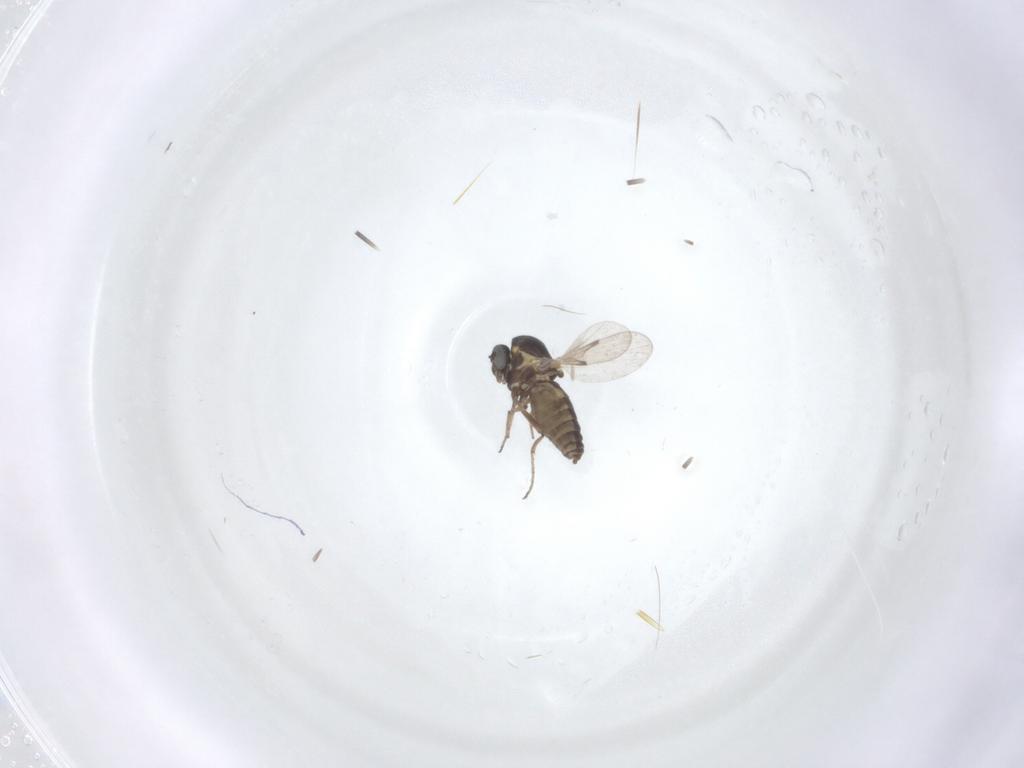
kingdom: Animalia
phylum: Arthropoda
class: Insecta
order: Diptera
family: Ceratopogonidae
